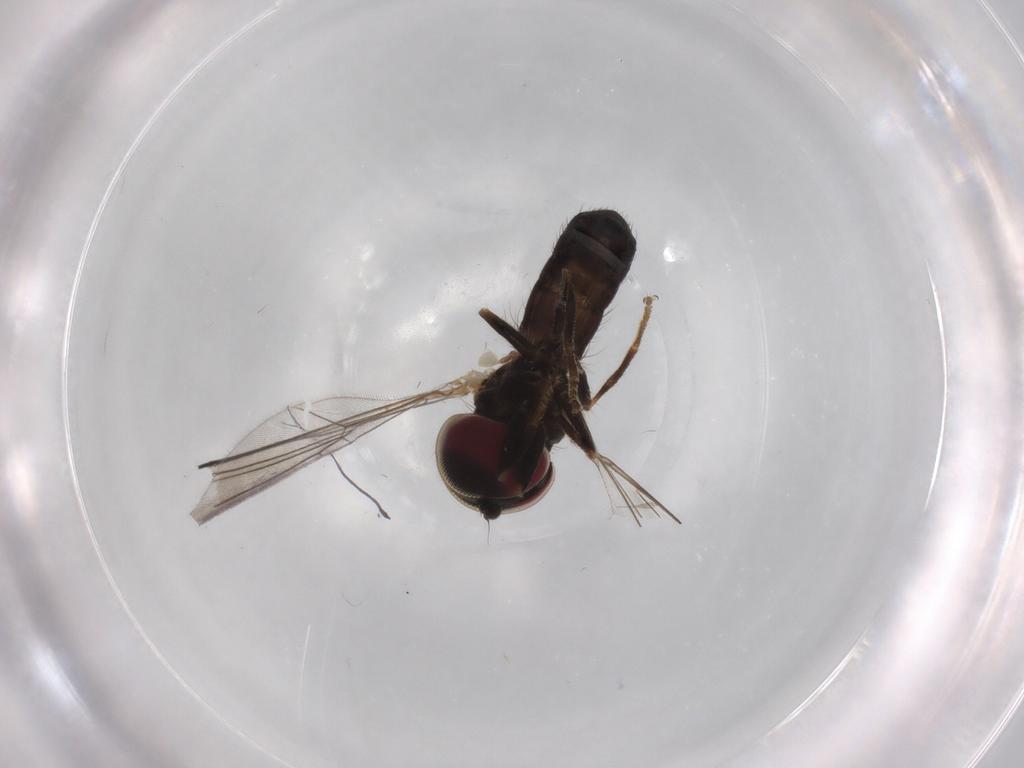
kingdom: Animalia
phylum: Arthropoda
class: Insecta
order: Diptera
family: Pipunculidae
